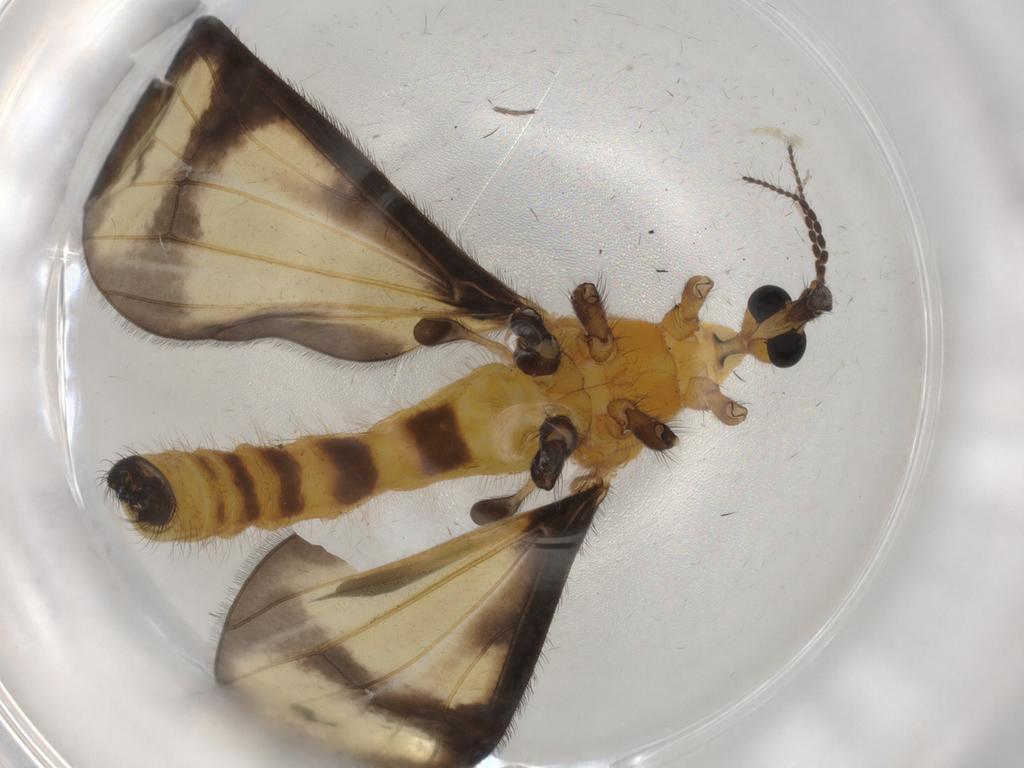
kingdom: Animalia
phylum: Arthropoda
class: Insecta
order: Diptera
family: Limoniidae
